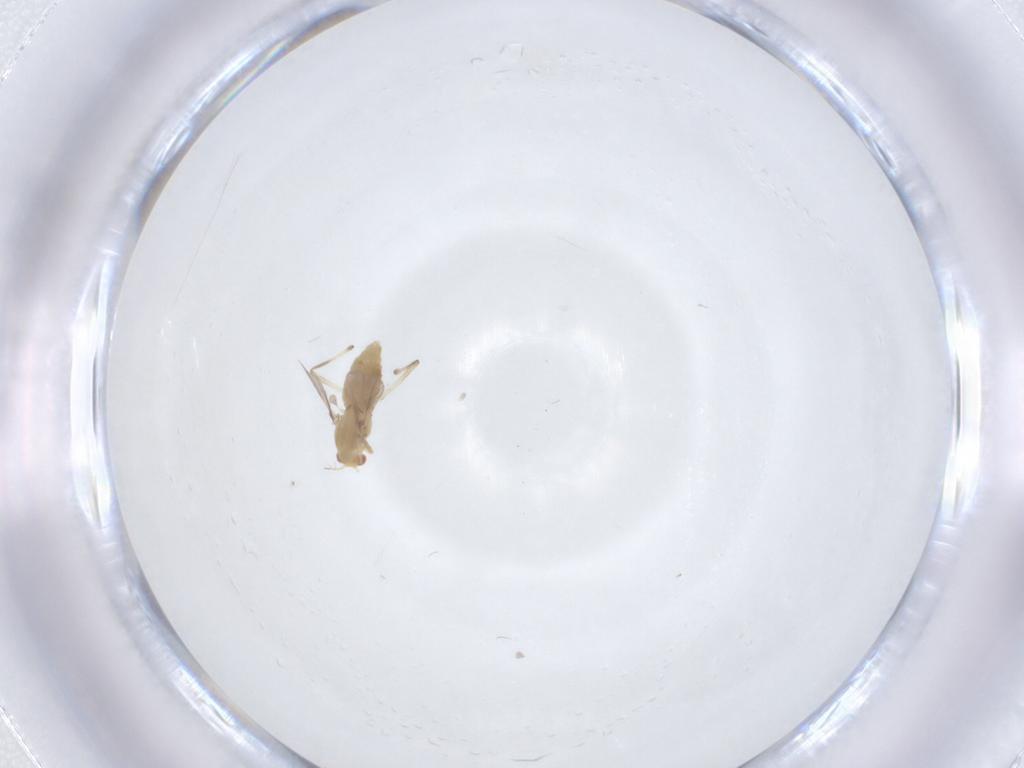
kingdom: Animalia
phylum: Arthropoda
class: Insecta
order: Diptera
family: Chironomidae
